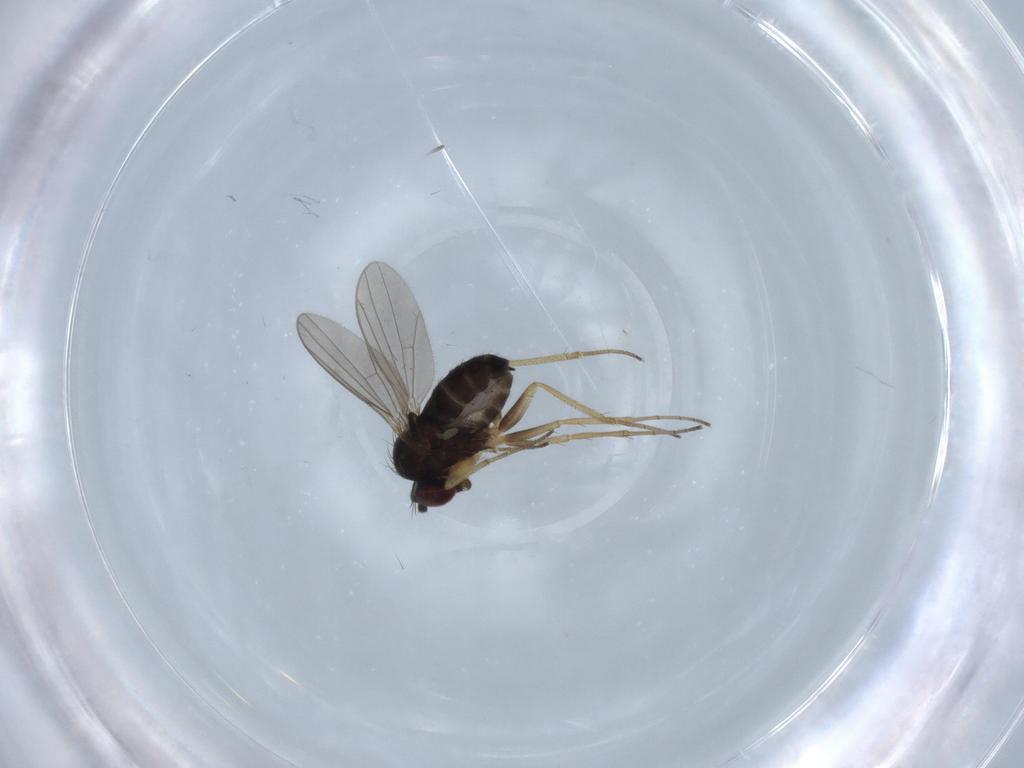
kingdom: Animalia
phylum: Arthropoda
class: Insecta
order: Diptera
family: Dolichopodidae
